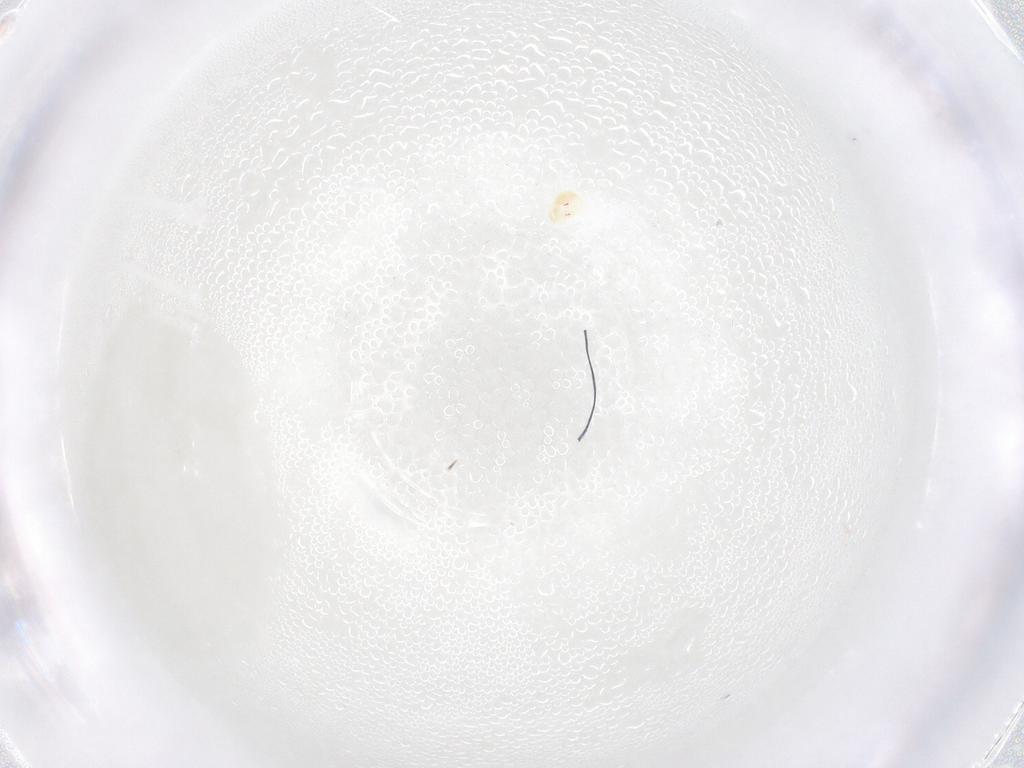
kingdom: Animalia
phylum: Arthropoda
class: Arachnida
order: Trombidiformes
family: Eupodidae
